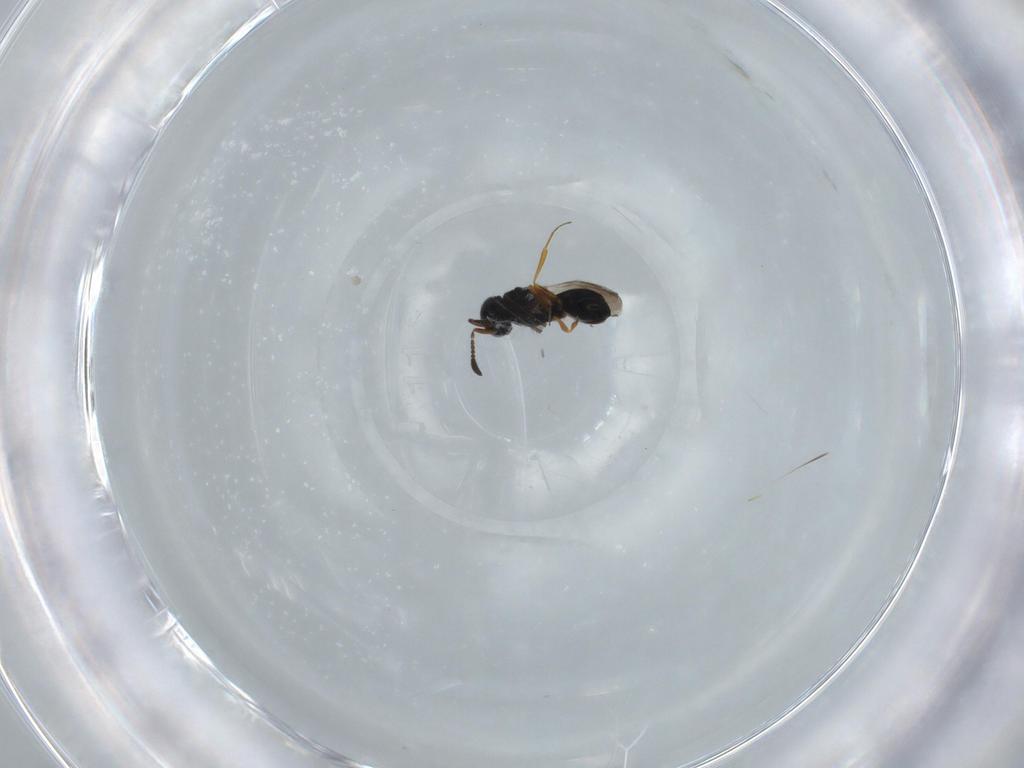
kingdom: Animalia
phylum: Arthropoda
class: Insecta
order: Hymenoptera
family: Scelionidae
